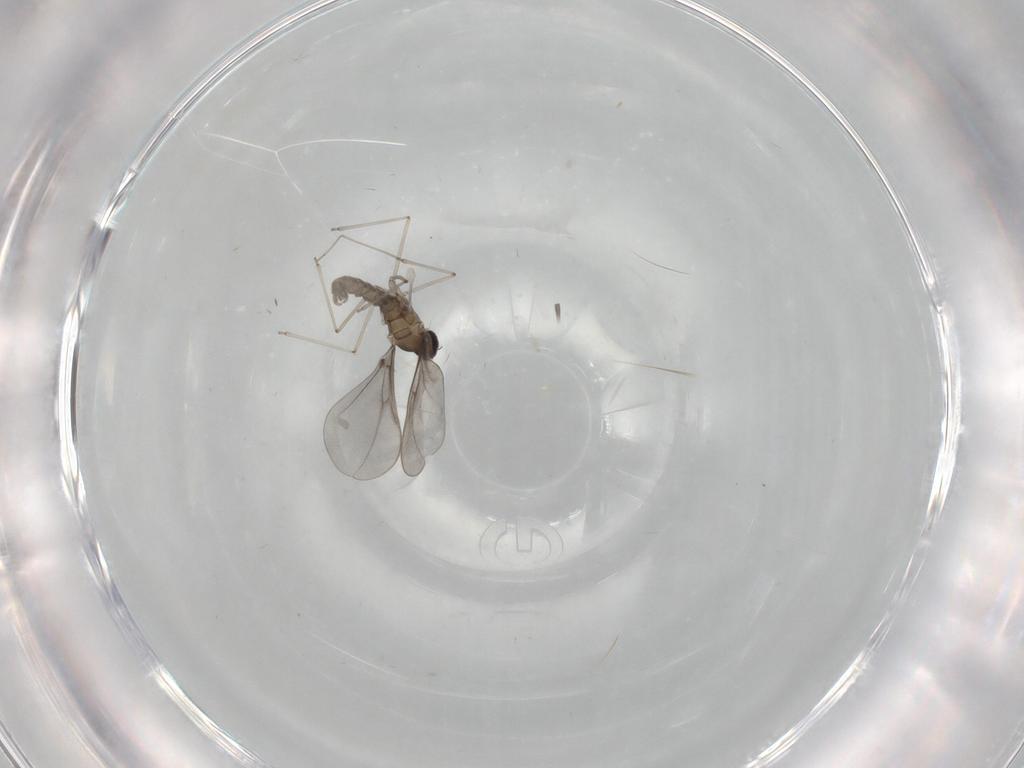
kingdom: Animalia
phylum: Arthropoda
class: Insecta
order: Diptera
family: Cecidomyiidae
